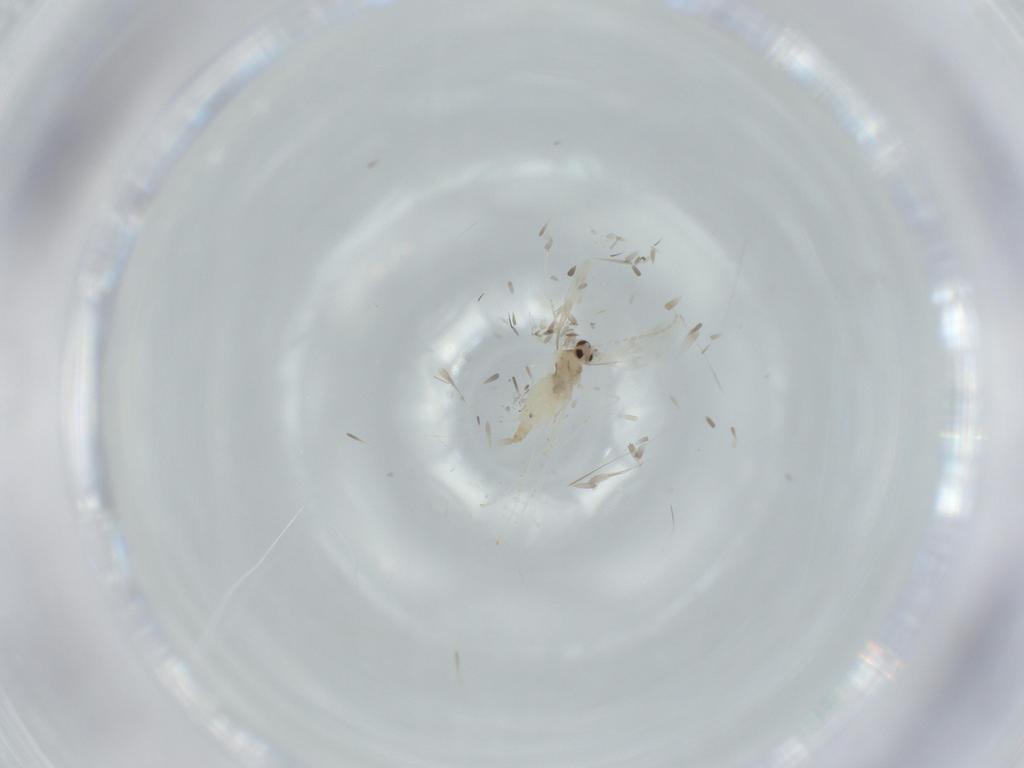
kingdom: Animalia
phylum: Arthropoda
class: Insecta
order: Diptera
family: Cecidomyiidae
